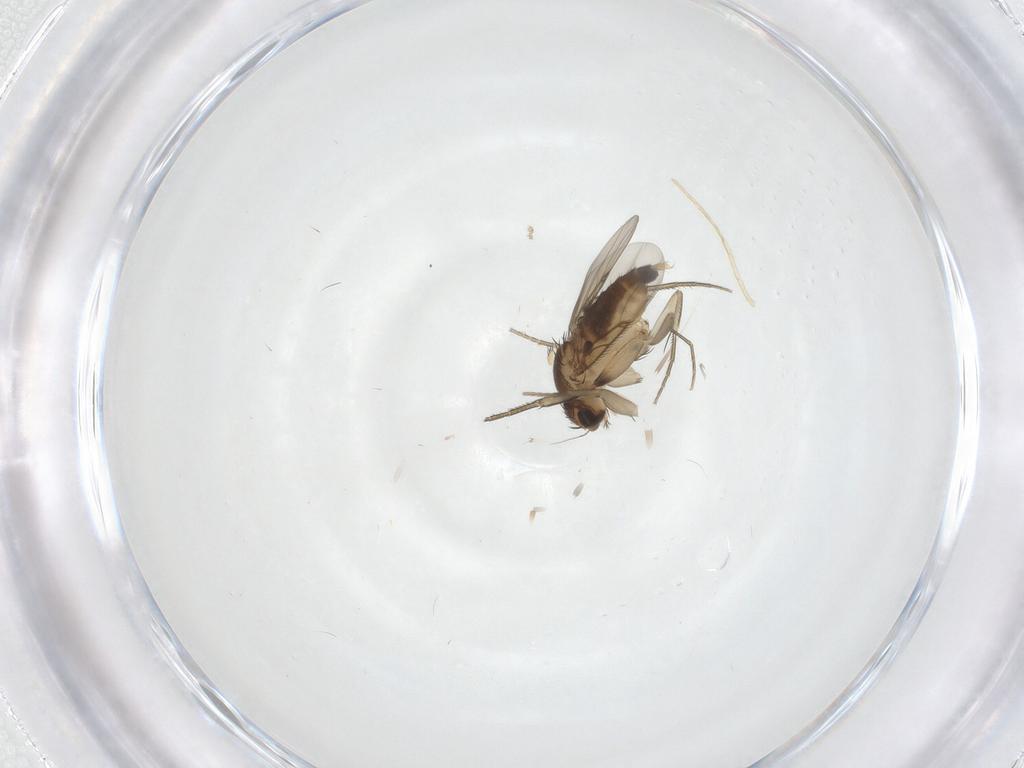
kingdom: Animalia
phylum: Arthropoda
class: Insecta
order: Diptera
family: Phoridae
